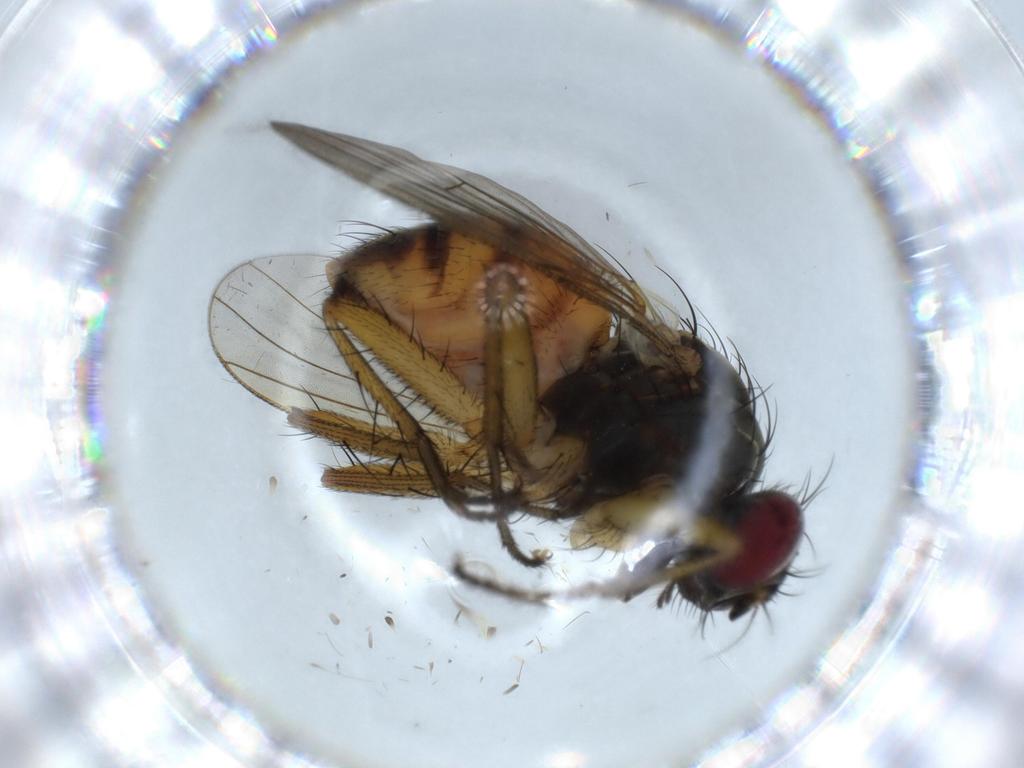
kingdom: Animalia
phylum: Arthropoda
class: Insecta
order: Diptera
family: Muscidae
